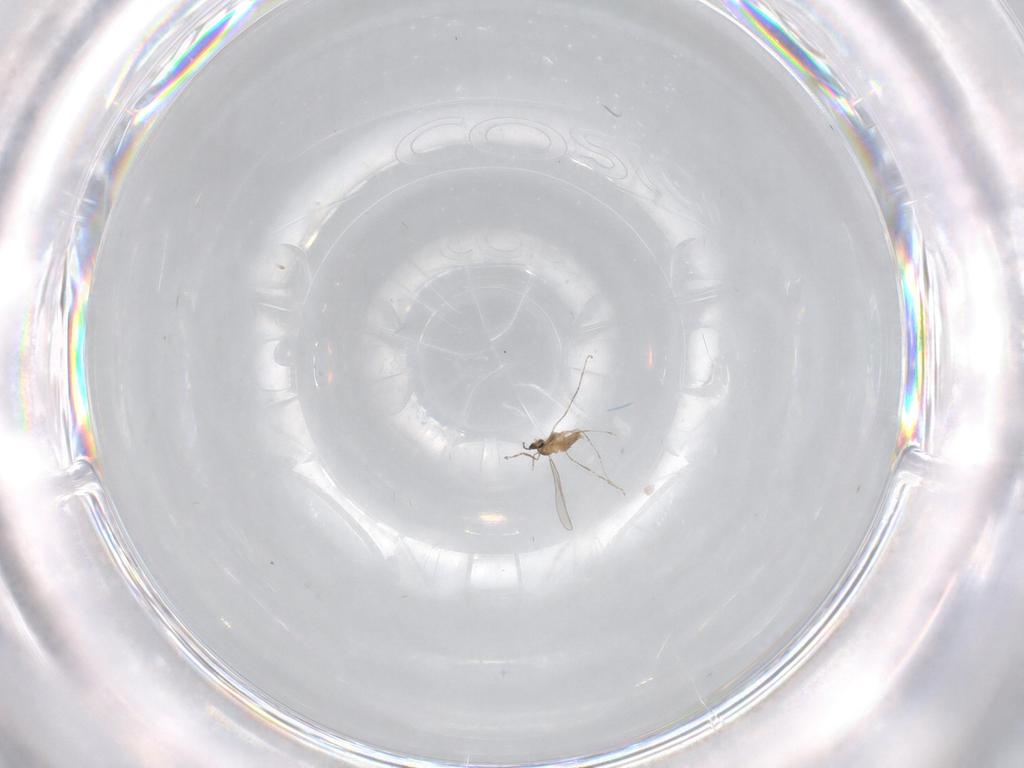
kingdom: Animalia
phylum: Arthropoda
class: Insecta
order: Diptera
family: Cecidomyiidae
